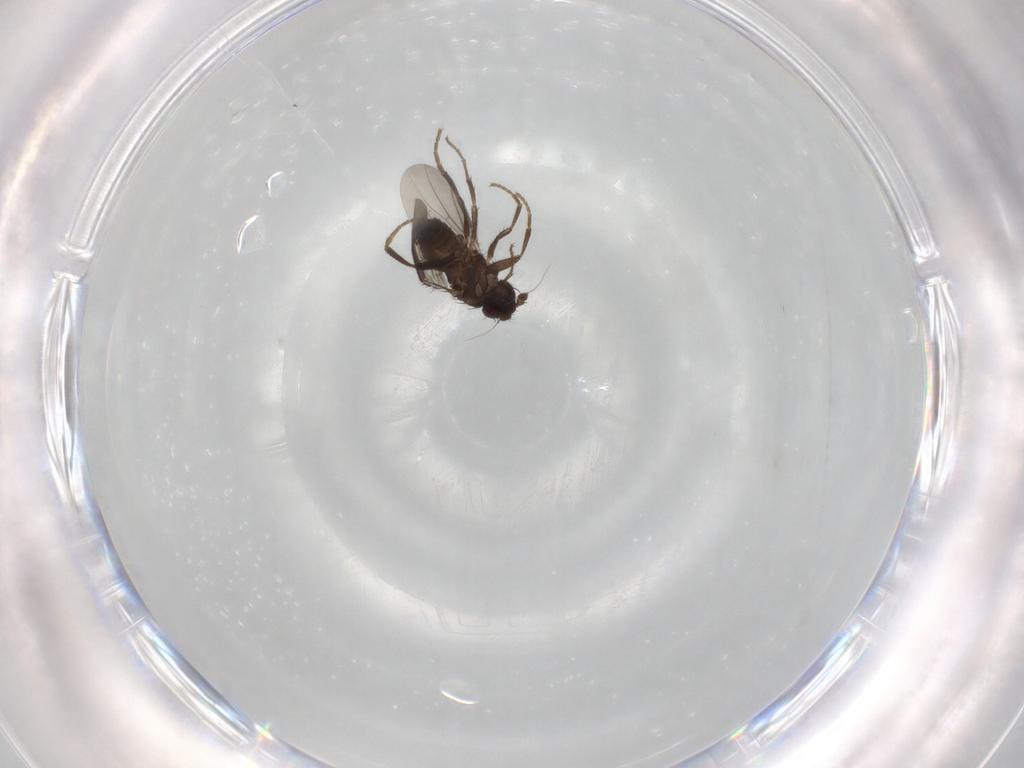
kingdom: Animalia
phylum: Arthropoda
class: Insecta
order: Diptera
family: Sphaeroceridae
